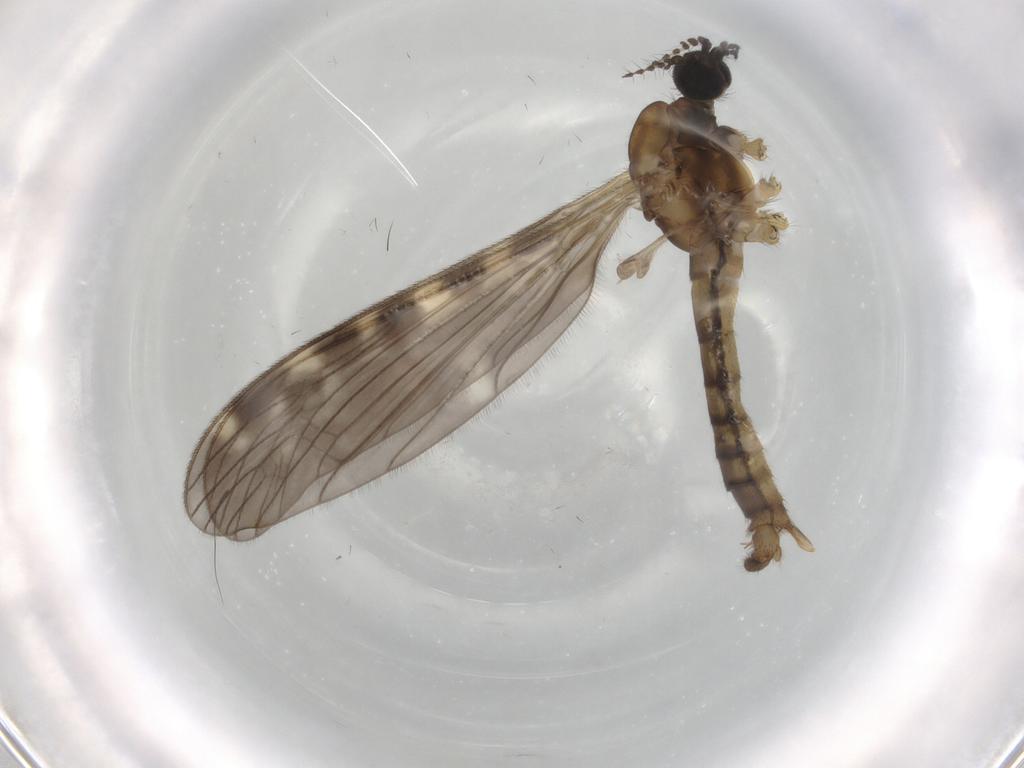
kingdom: Animalia
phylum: Arthropoda
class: Insecta
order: Diptera
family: Limoniidae
